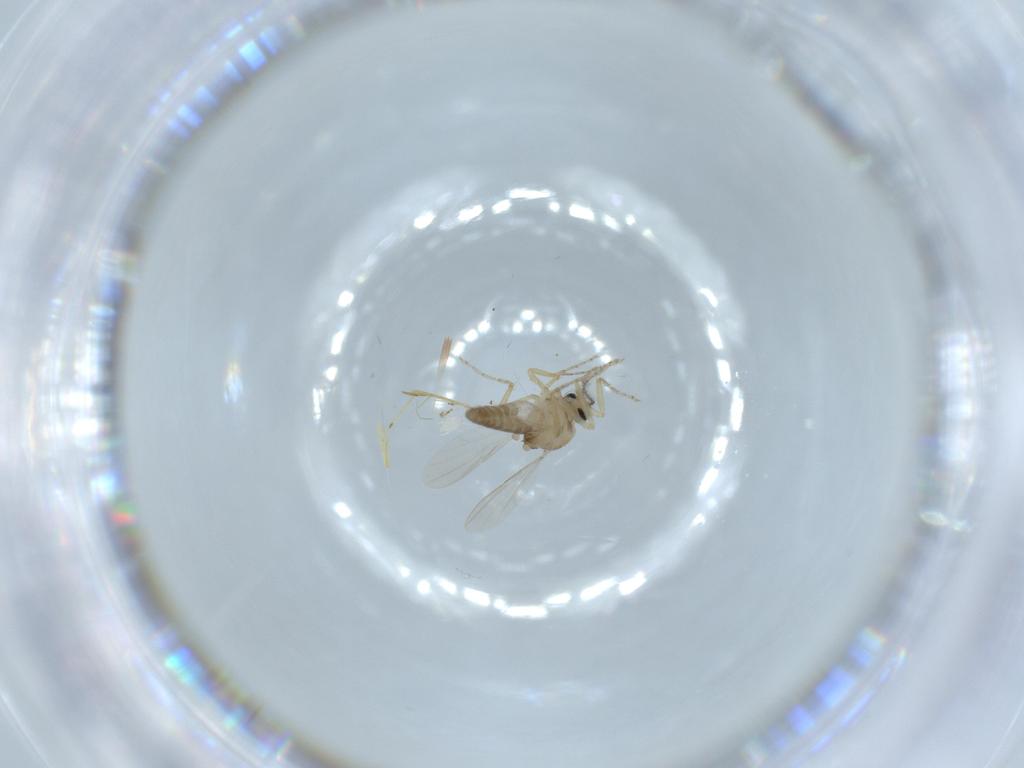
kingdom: Animalia
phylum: Arthropoda
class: Insecta
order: Diptera
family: Ceratopogonidae
